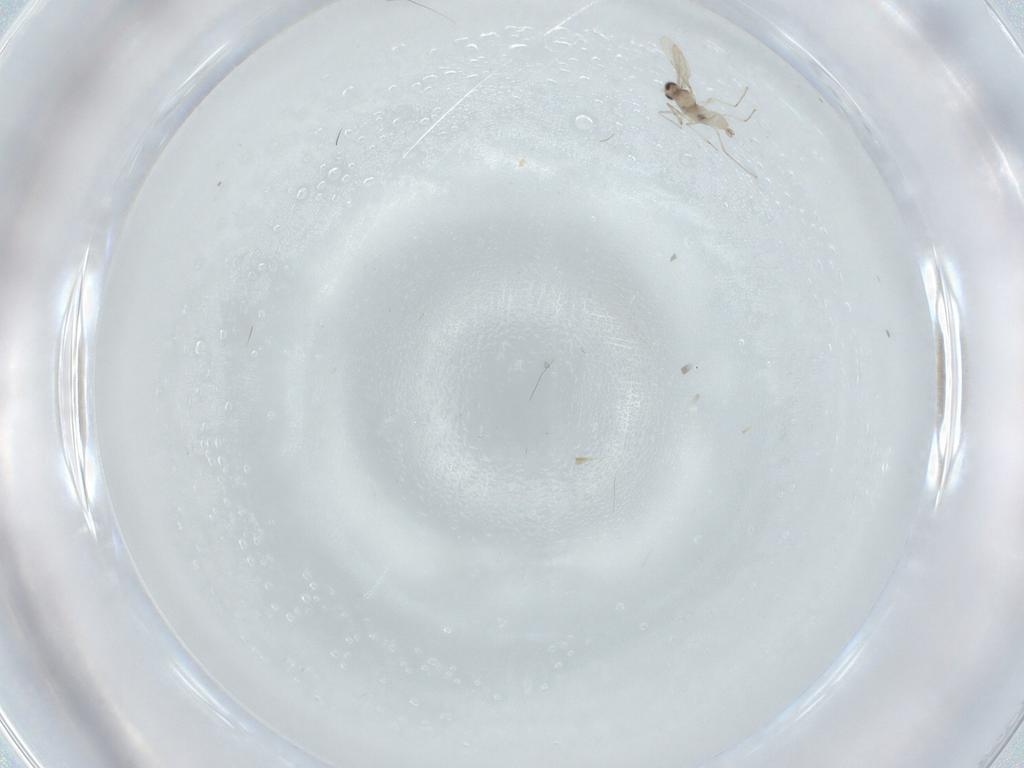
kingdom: Animalia
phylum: Arthropoda
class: Insecta
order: Diptera
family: Cecidomyiidae
